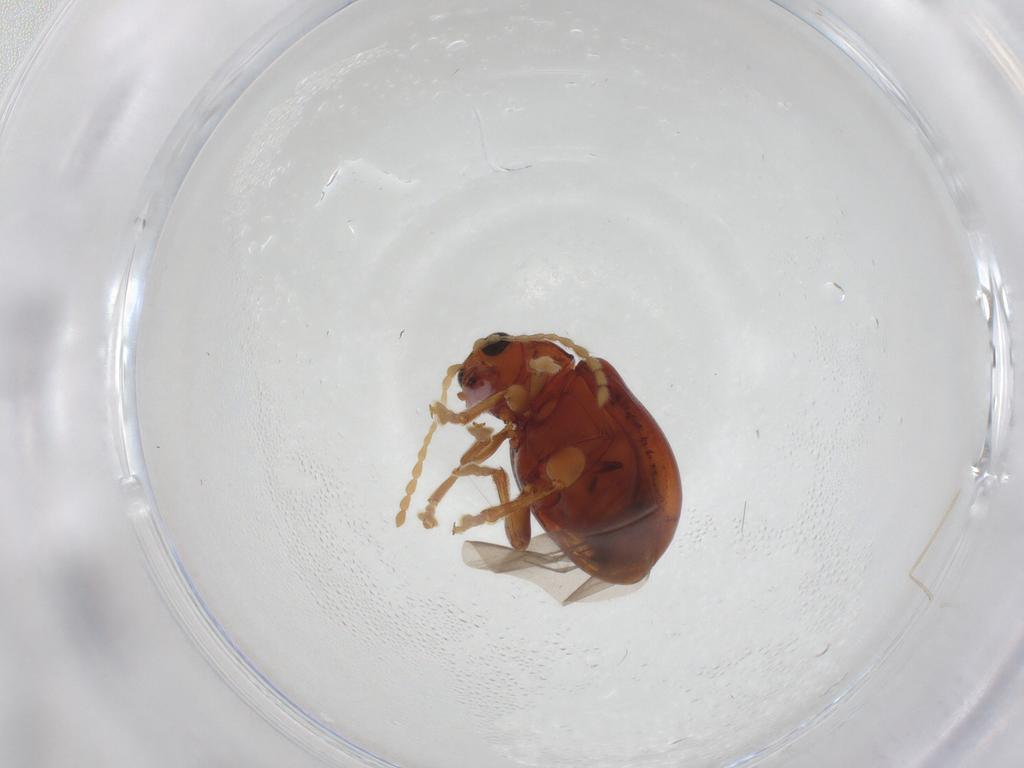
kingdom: Animalia
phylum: Arthropoda
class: Insecta
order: Coleoptera
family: Chrysomelidae
